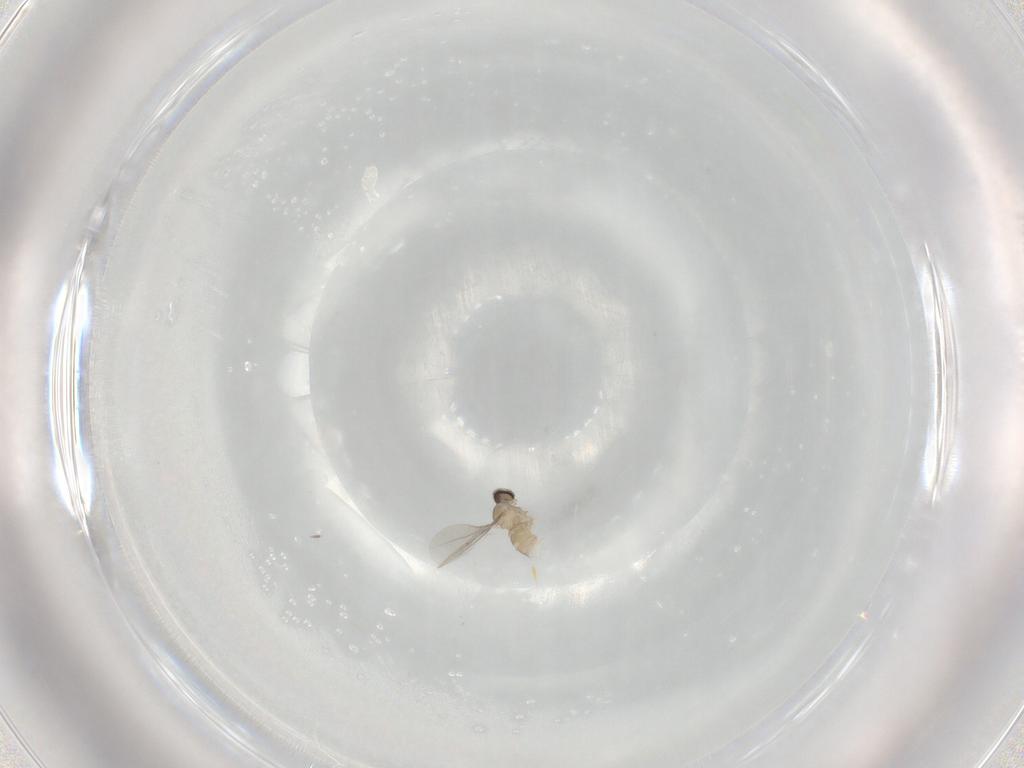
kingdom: Animalia
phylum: Arthropoda
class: Insecta
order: Diptera
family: Cecidomyiidae
